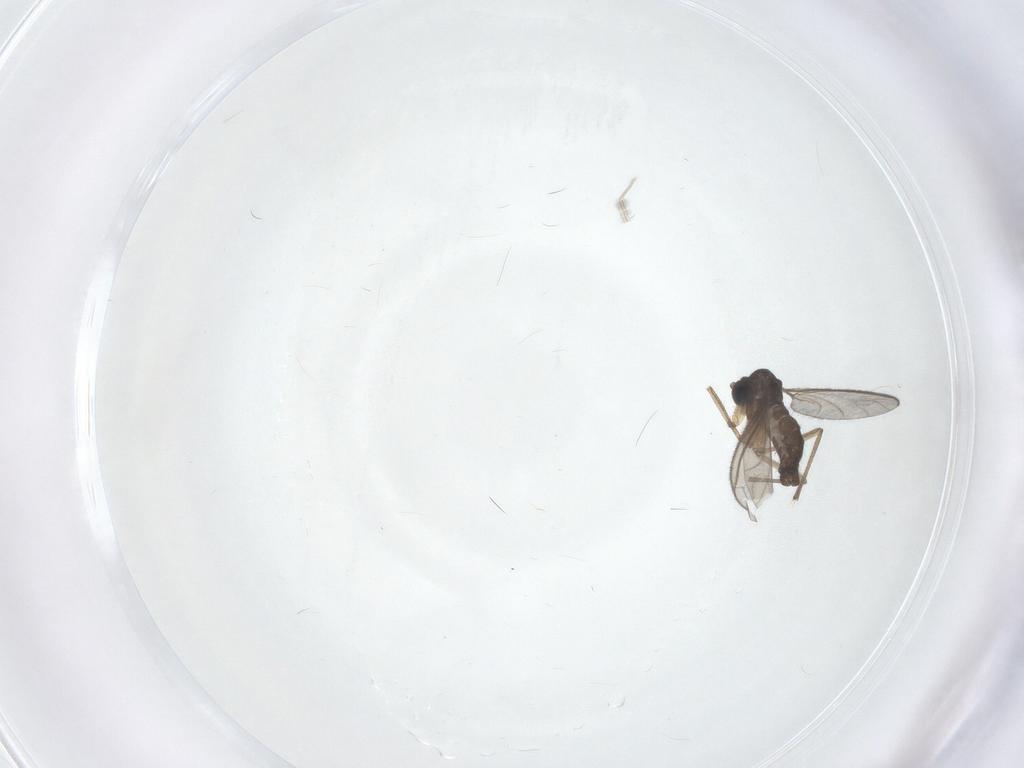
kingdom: Animalia
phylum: Arthropoda
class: Insecta
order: Diptera
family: Sciaridae
